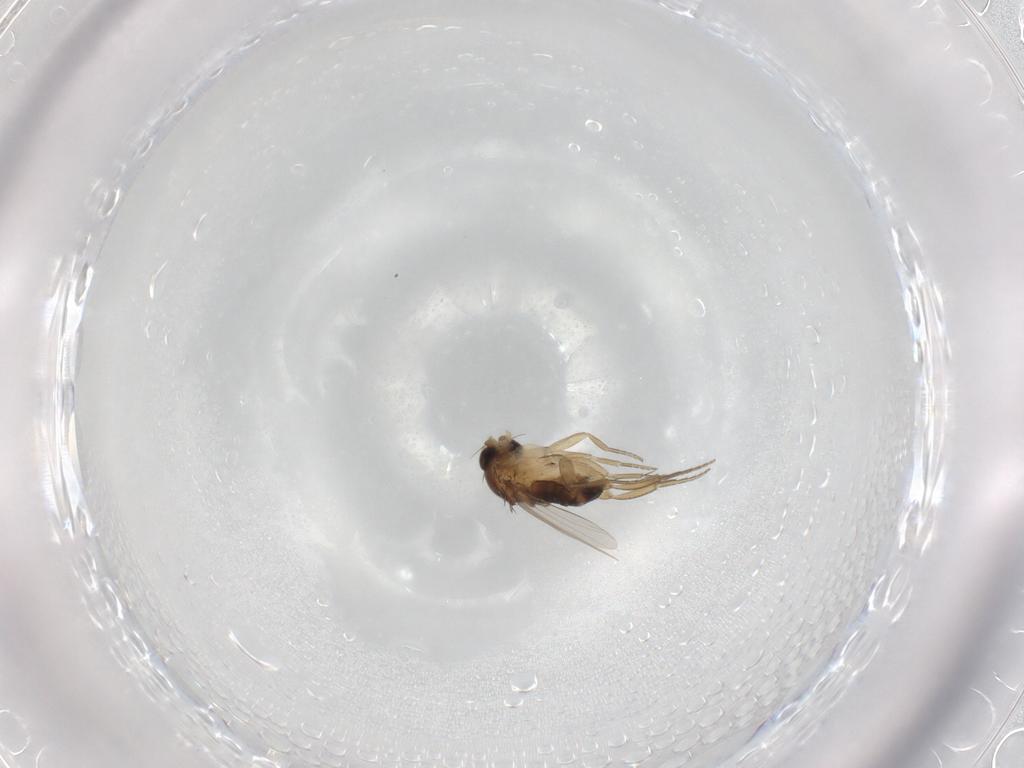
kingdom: Animalia
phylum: Arthropoda
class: Insecta
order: Diptera
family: Phoridae
